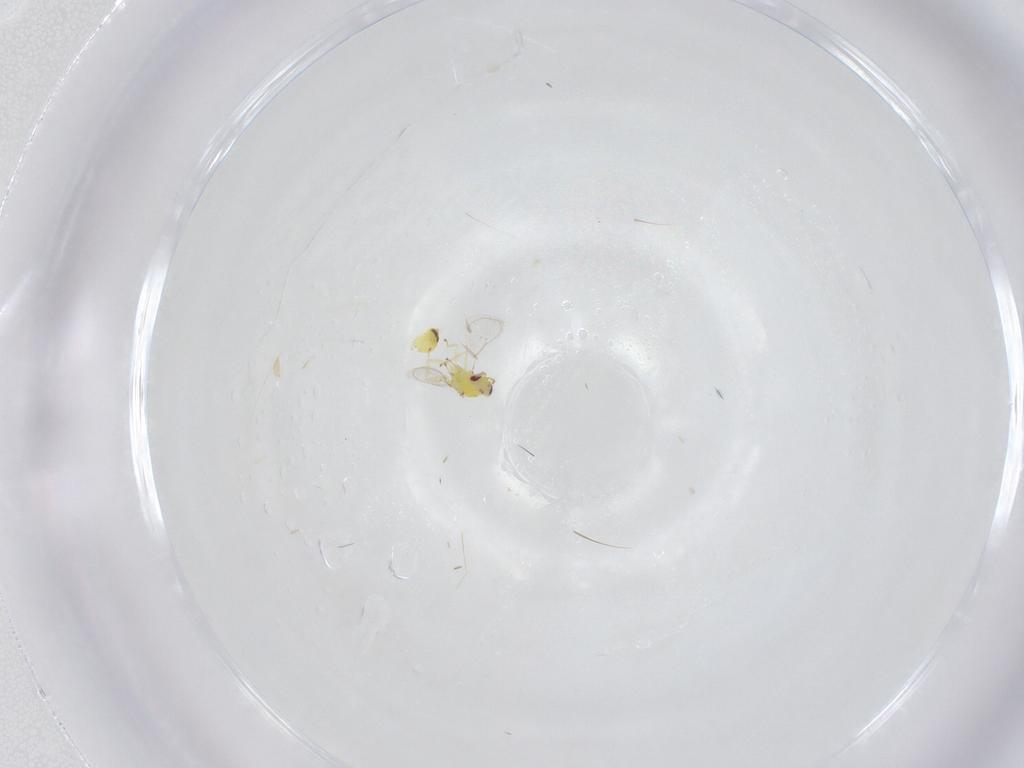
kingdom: Animalia
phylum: Arthropoda
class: Insecta
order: Hymenoptera
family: Eulophidae
